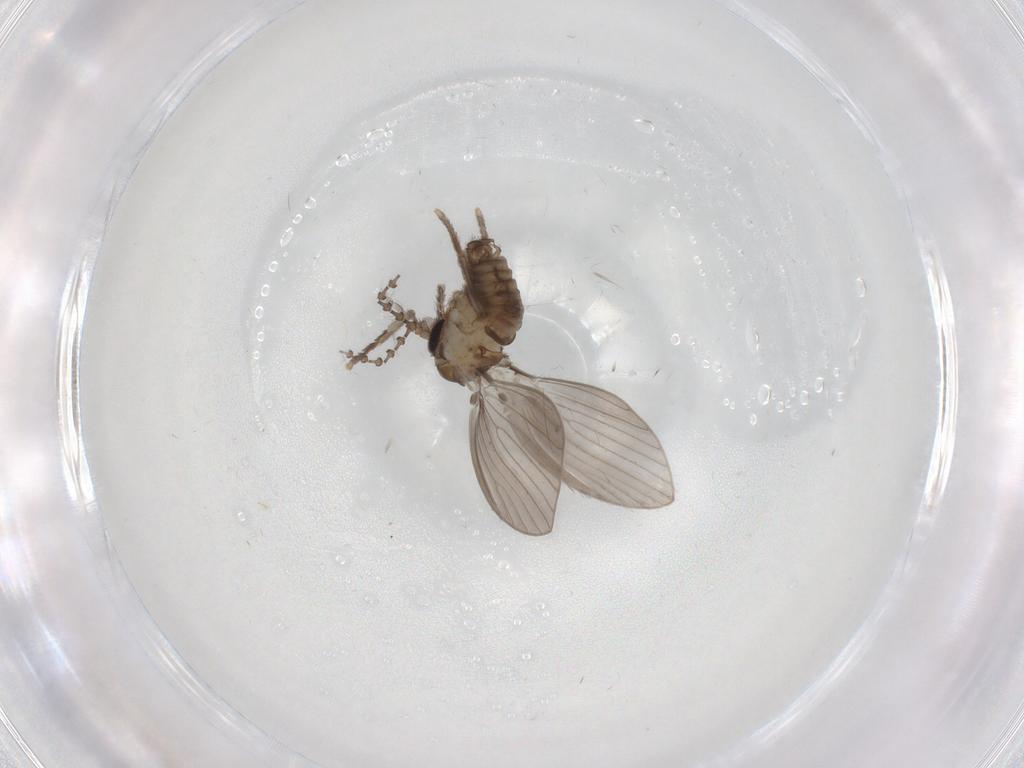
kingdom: Animalia
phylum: Arthropoda
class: Insecta
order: Diptera
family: Psychodidae
